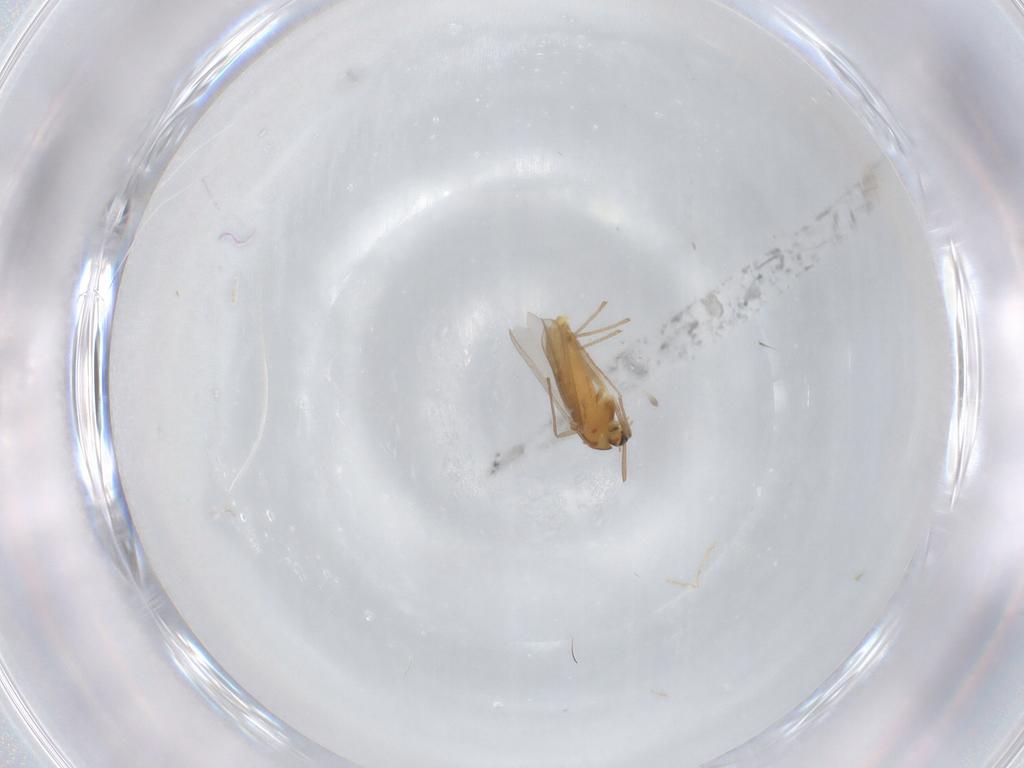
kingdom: Animalia
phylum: Arthropoda
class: Insecta
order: Diptera
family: Chironomidae
